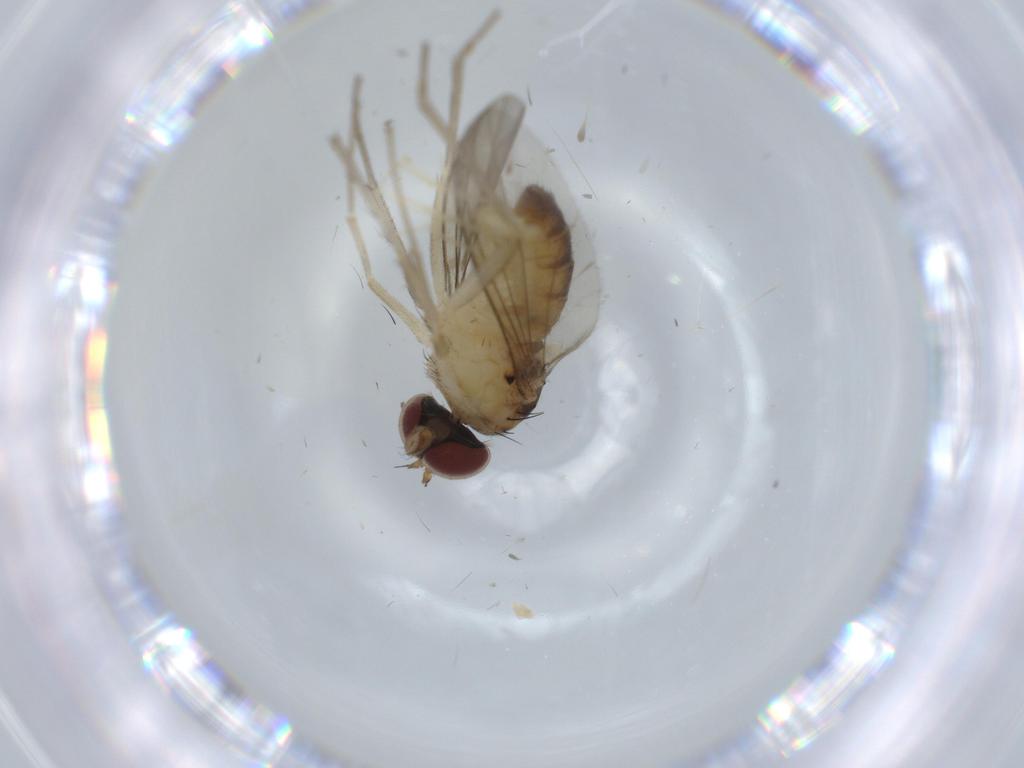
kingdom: Animalia
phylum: Arthropoda
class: Insecta
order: Diptera
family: Dolichopodidae
